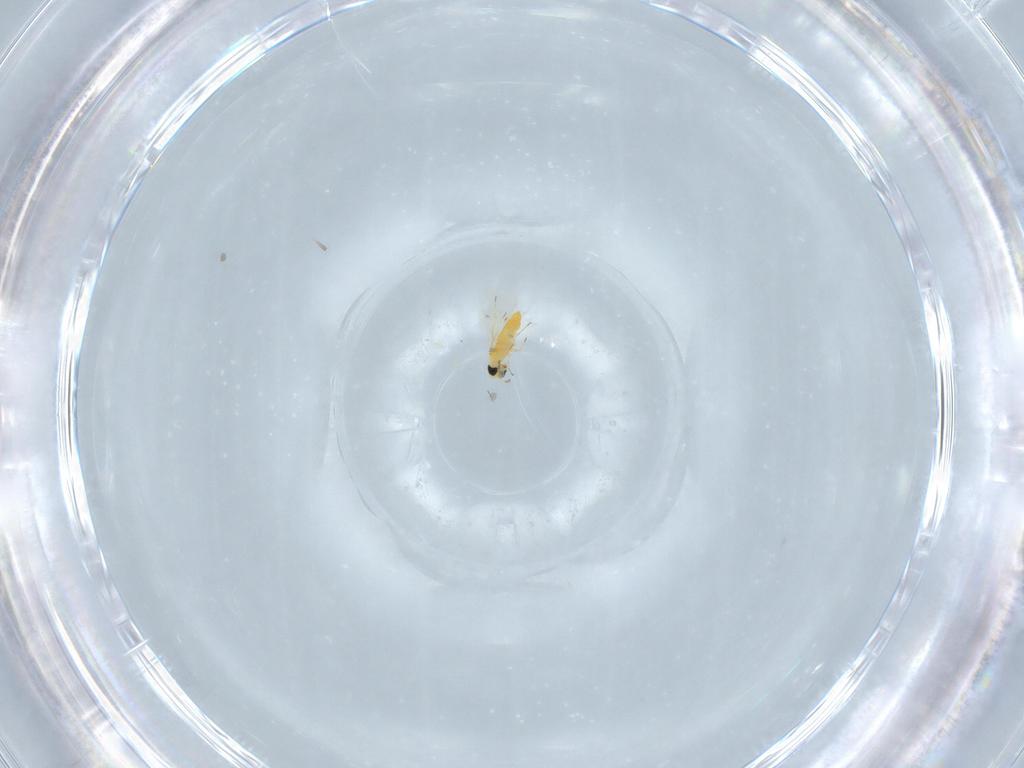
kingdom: Animalia
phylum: Arthropoda
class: Insecta
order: Hymenoptera
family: Trichogrammatidae
